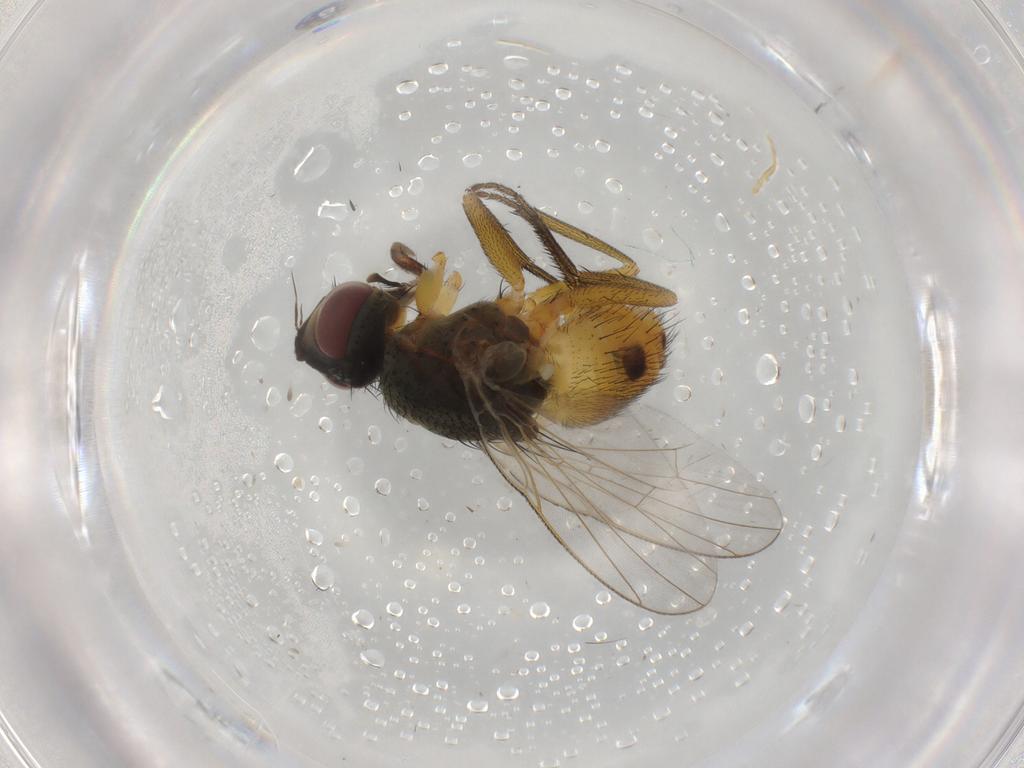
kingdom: Animalia
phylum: Arthropoda
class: Insecta
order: Diptera
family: Muscidae
